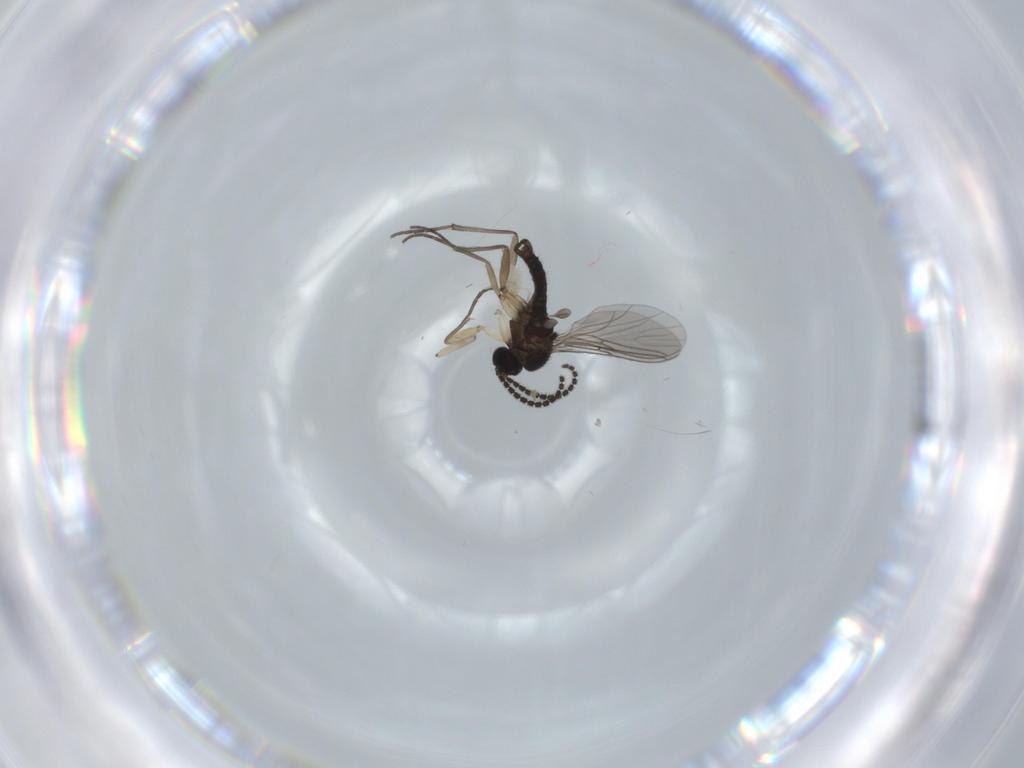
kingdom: Animalia
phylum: Arthropoda
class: Insecta
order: Diptera
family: Sciaridae
